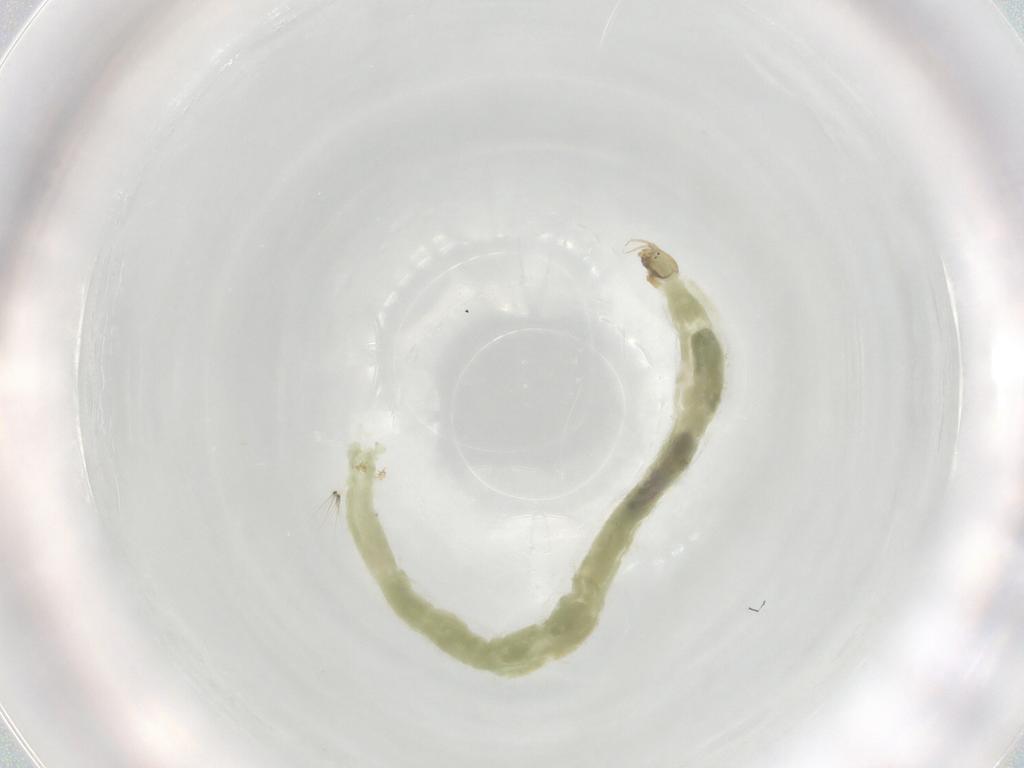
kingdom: Animalia
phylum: Arthropoda
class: Insecta
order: Diptera
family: Chironomidae
